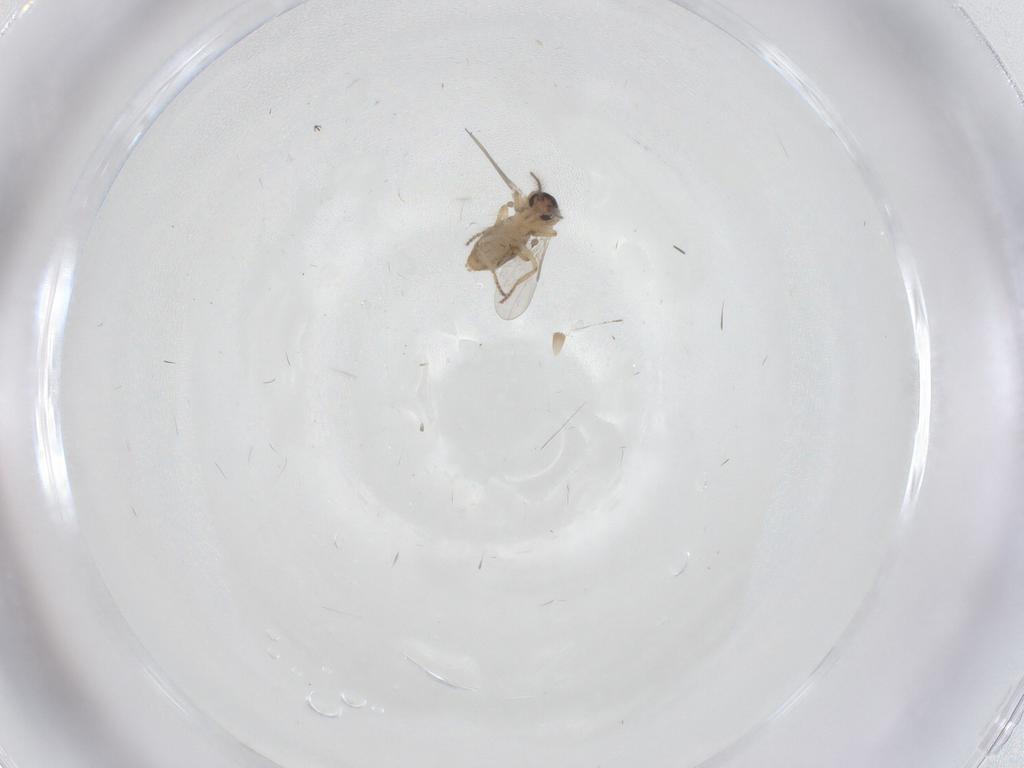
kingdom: Animalia
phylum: Arthropoda
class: Insecta
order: Diptera
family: Ceratopogonidae
